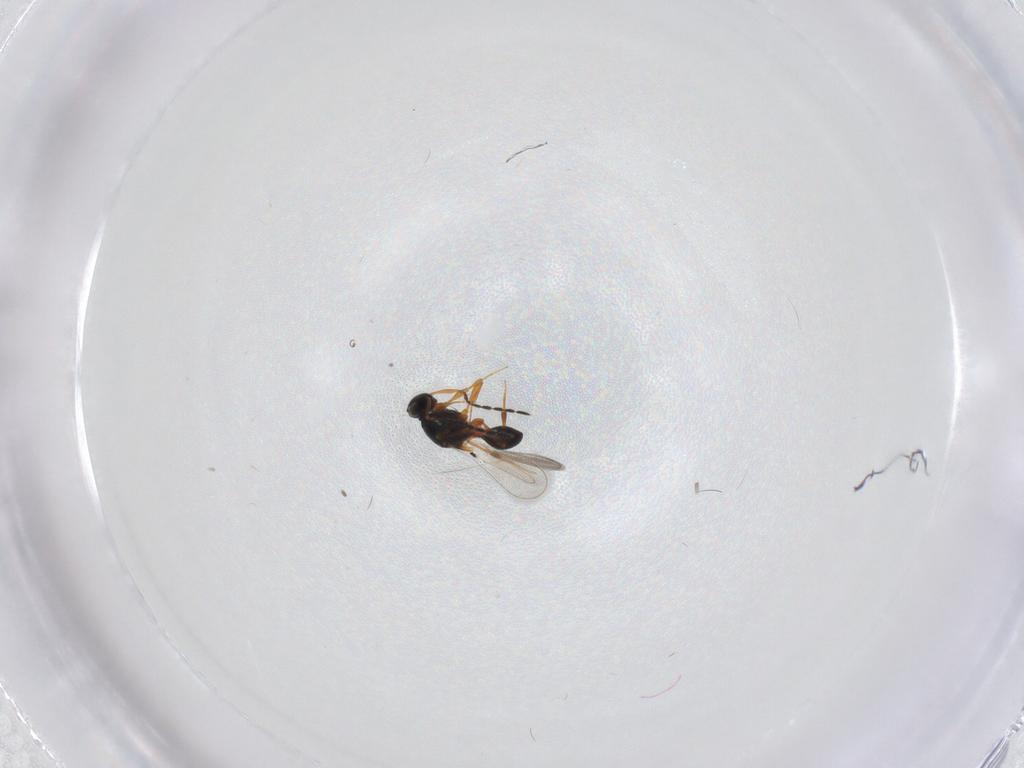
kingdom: Animalia
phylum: Arthropoda
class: Insecta
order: Hymenoptera
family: Platygastridae
